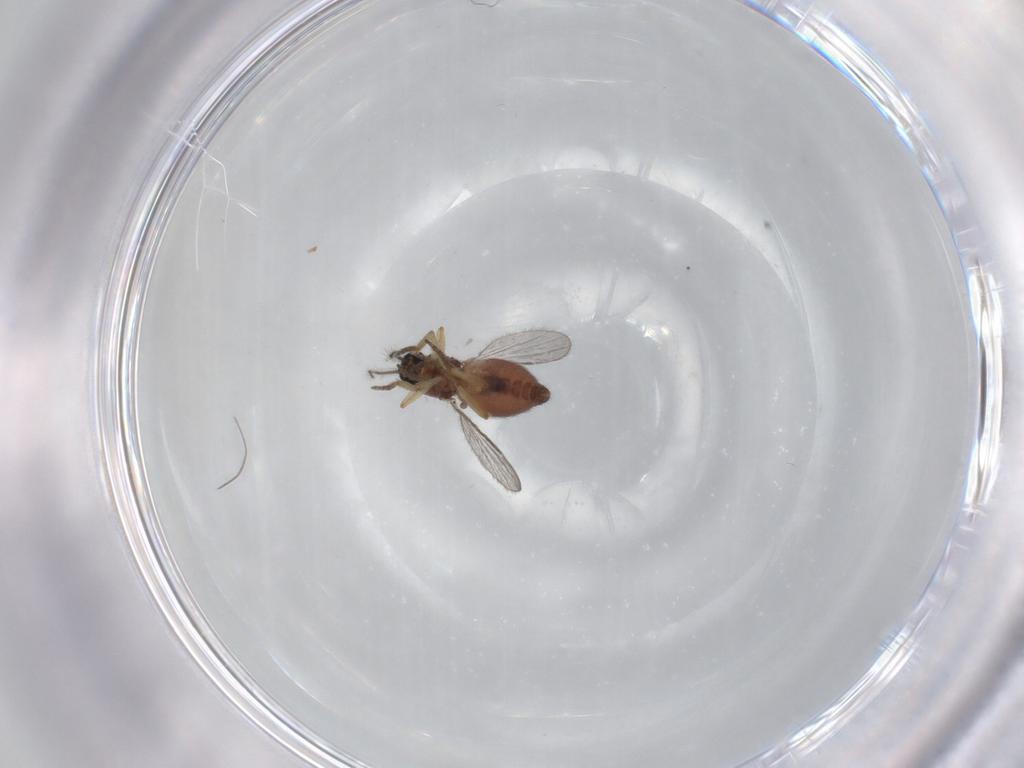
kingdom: Animalia
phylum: Arthropoda
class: Insecta
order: Diptera
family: Ceratopogonidae
